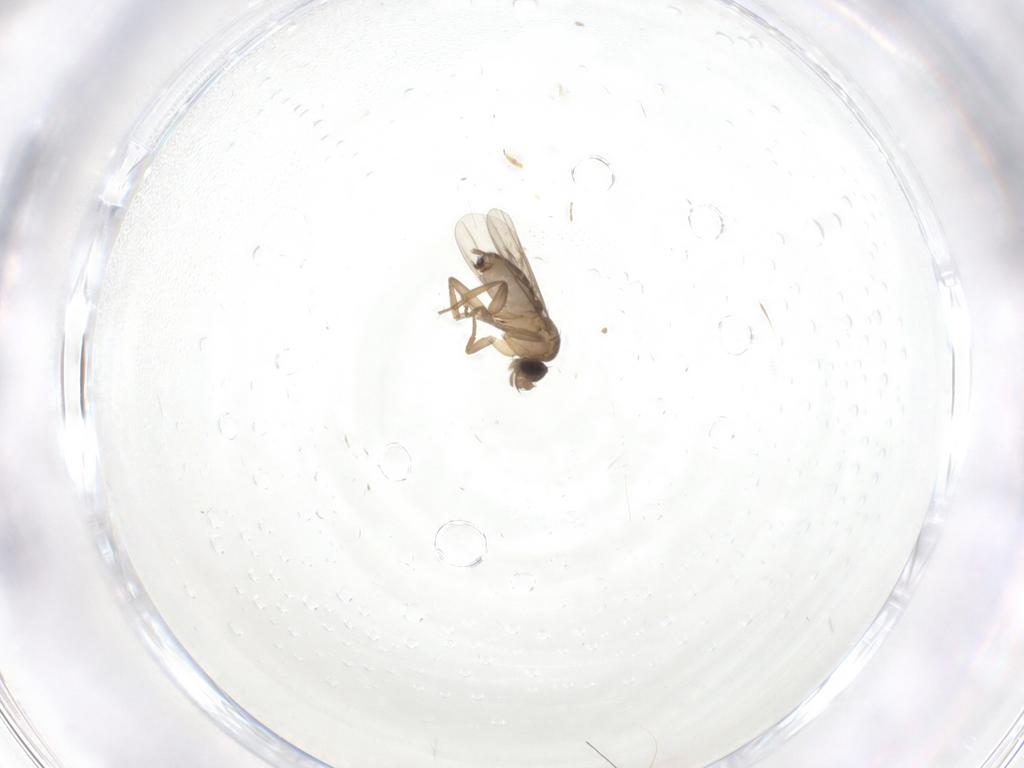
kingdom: Animalia
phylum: Arthropoda
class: Insecta
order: Diptera
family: Phoridae
